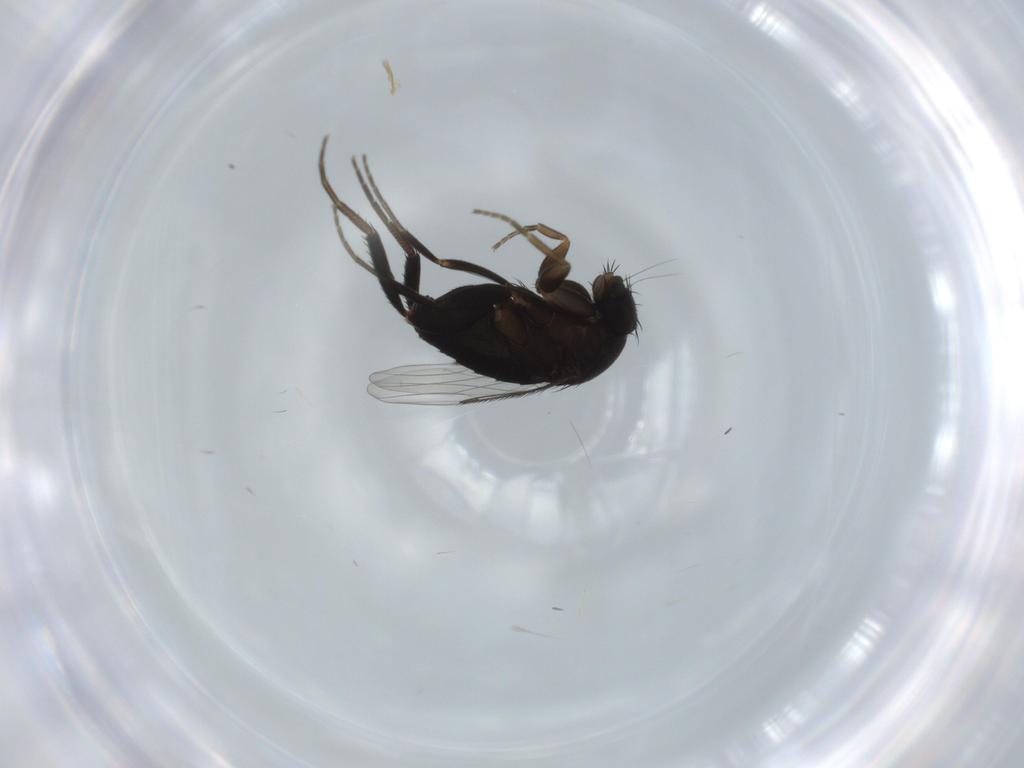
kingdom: Animalia
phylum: Arthropoda
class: Insecta
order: Diptera
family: Phoridae
